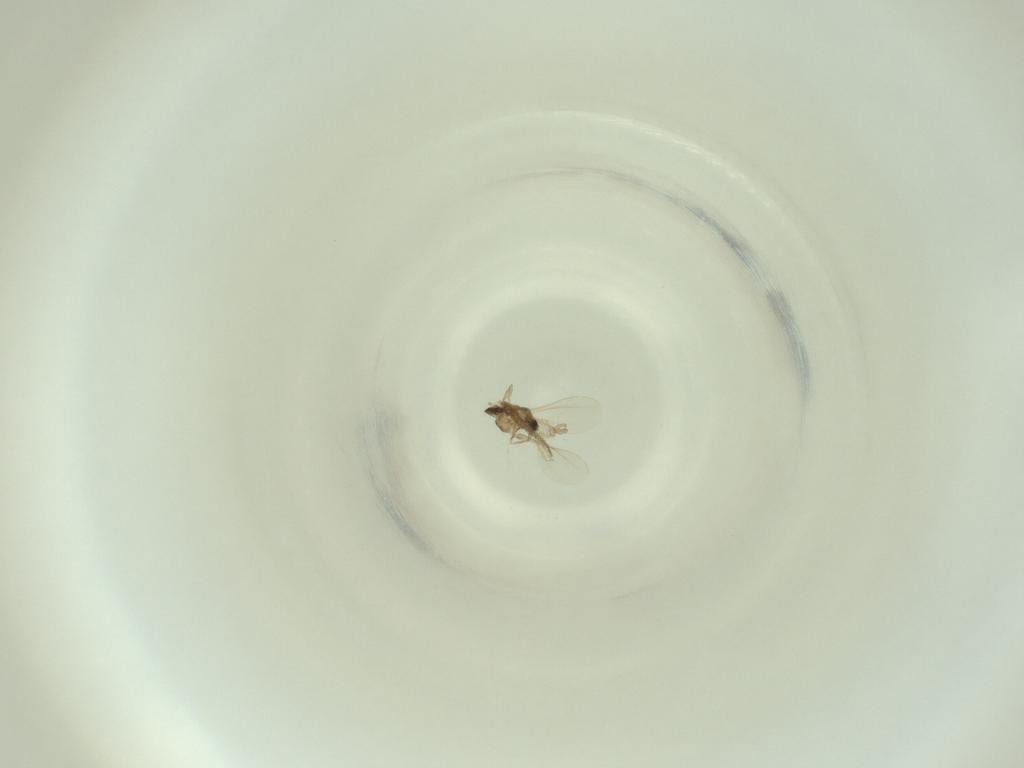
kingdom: Animalia
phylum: Arthropoda
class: Insecta
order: Diptera
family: Cecidomyiidae
